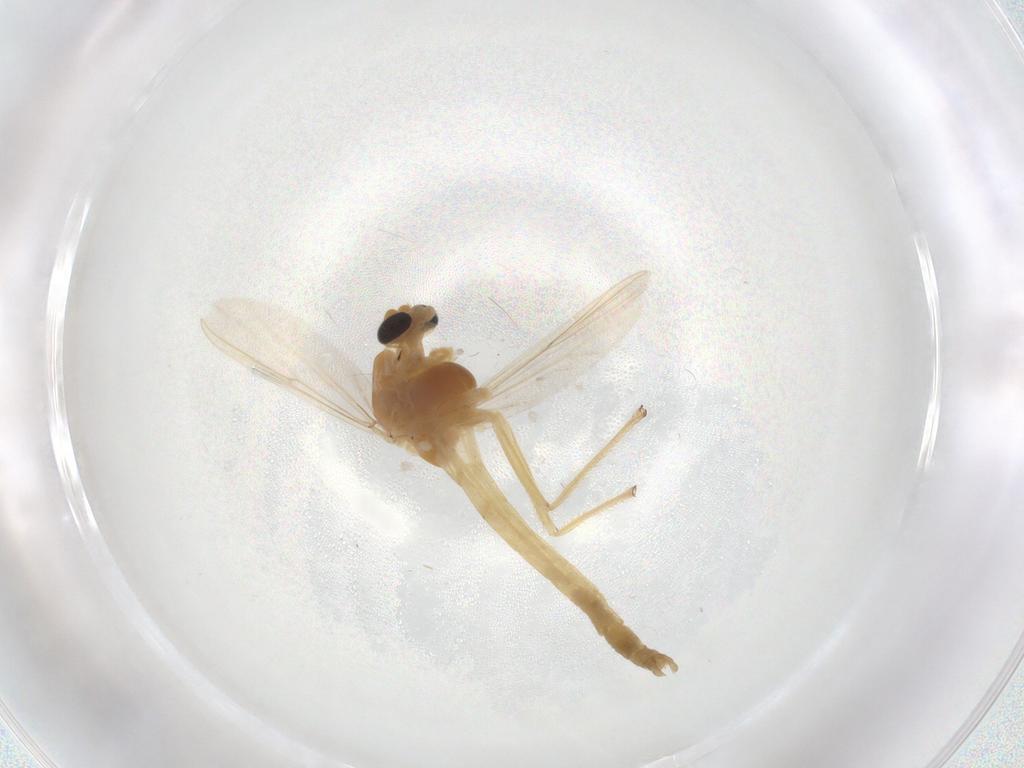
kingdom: Animalia
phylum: Arthropoda
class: Insecta
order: Diptera
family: Chironomidae
